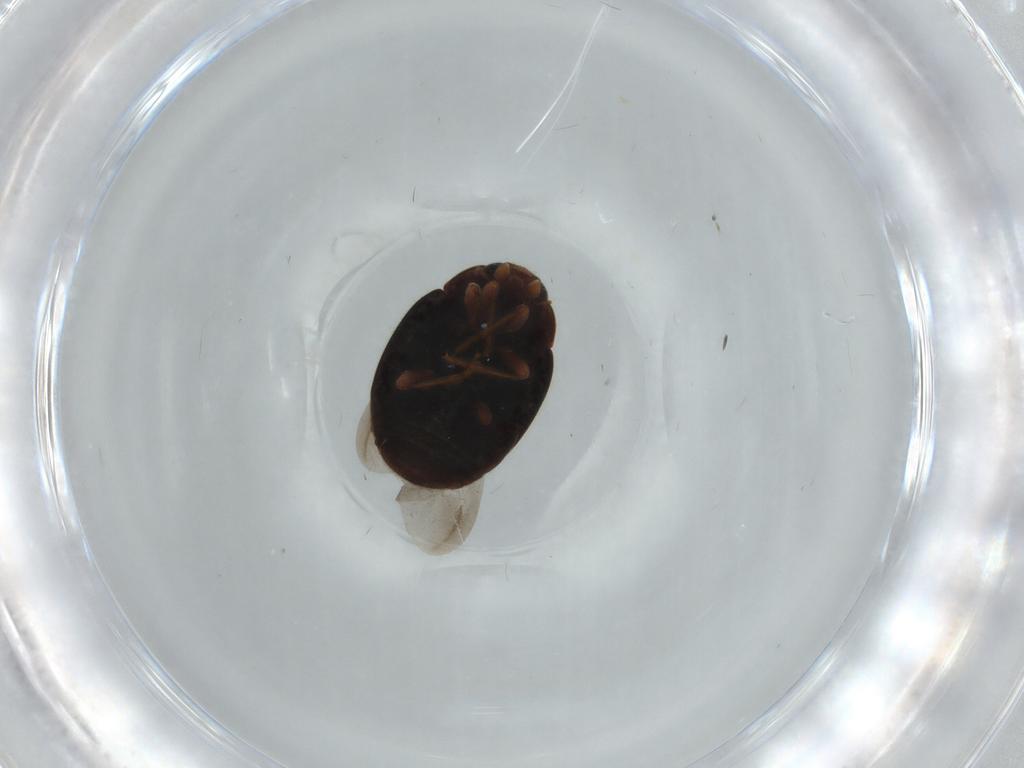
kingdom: Animalia
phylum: Arthropoda
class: Insecta
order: Coleoptera
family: Coccinellidae
